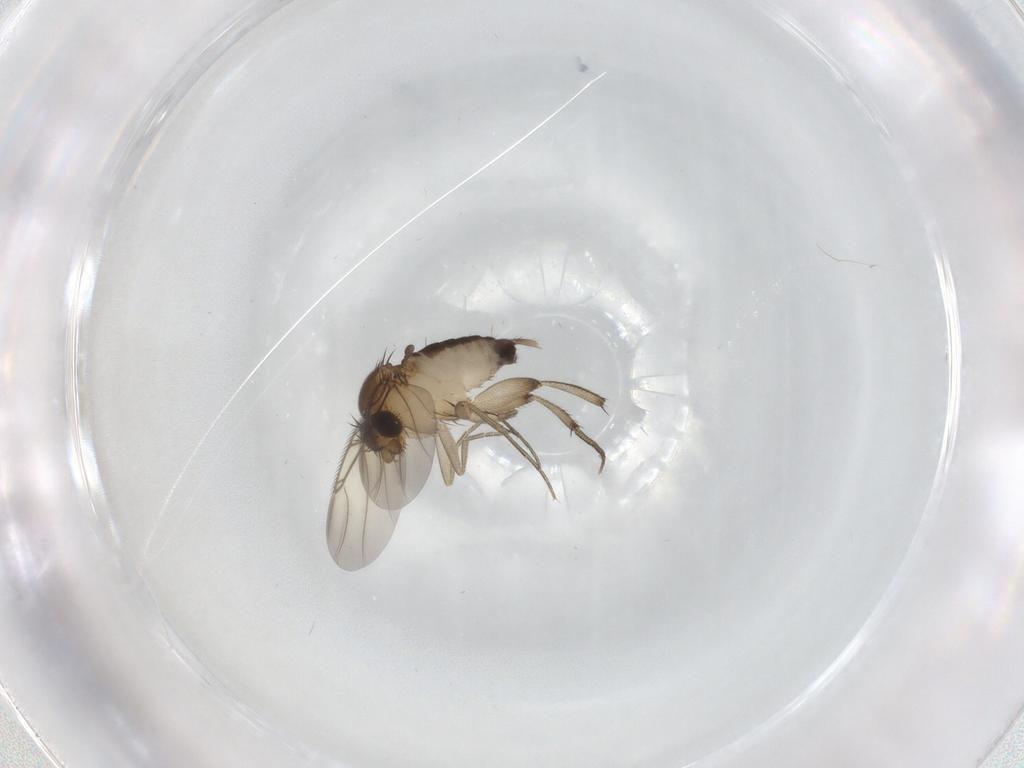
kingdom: Animalia
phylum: Arthropoda
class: Insecta
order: Diptera
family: Phoridae
